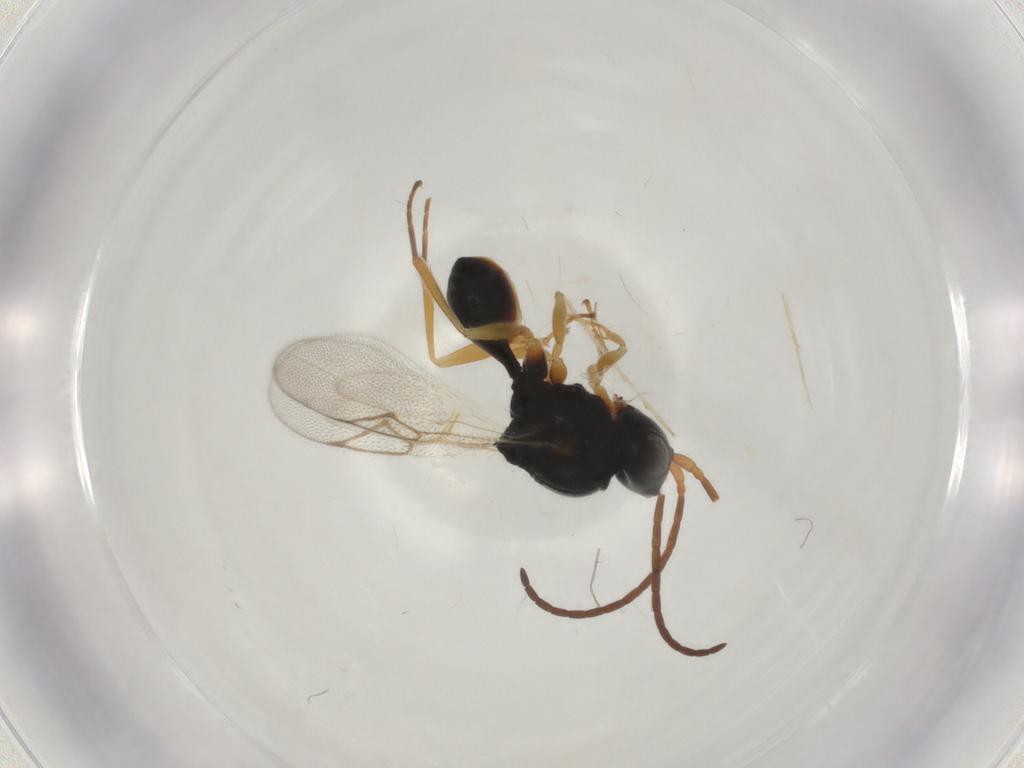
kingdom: Animalia
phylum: Arthropoda
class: Insecta
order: Hymenoptera
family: Figitidae
